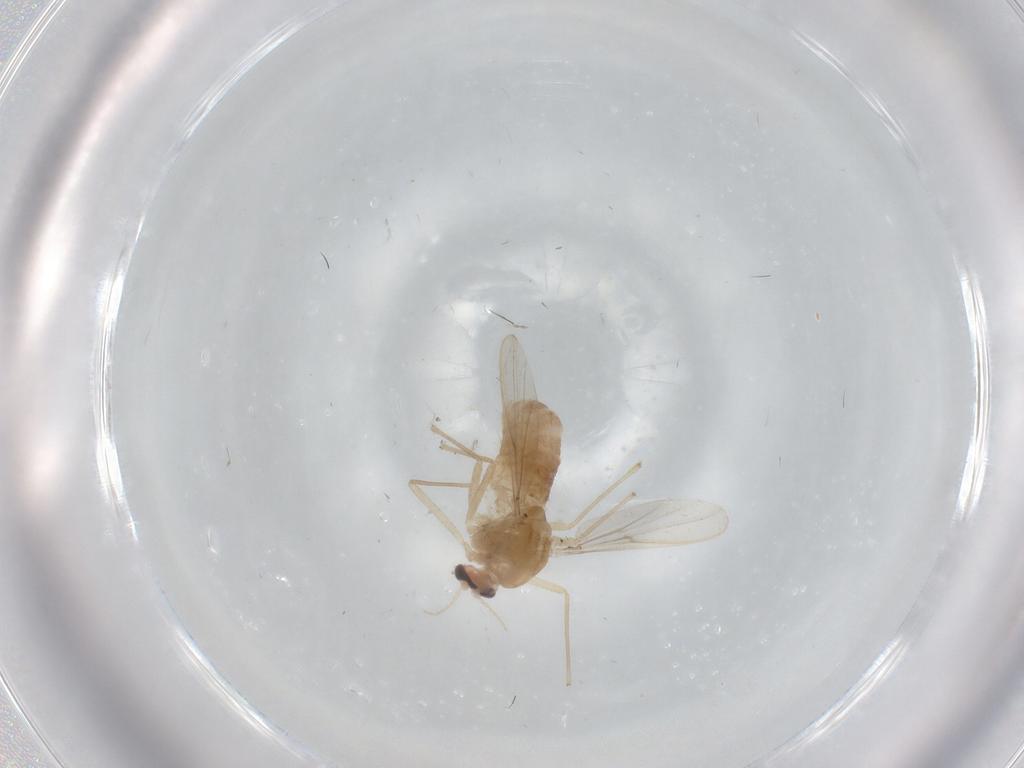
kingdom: Animalia
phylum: Arthropoda
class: Insecta
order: Diptera
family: Chironomidae
